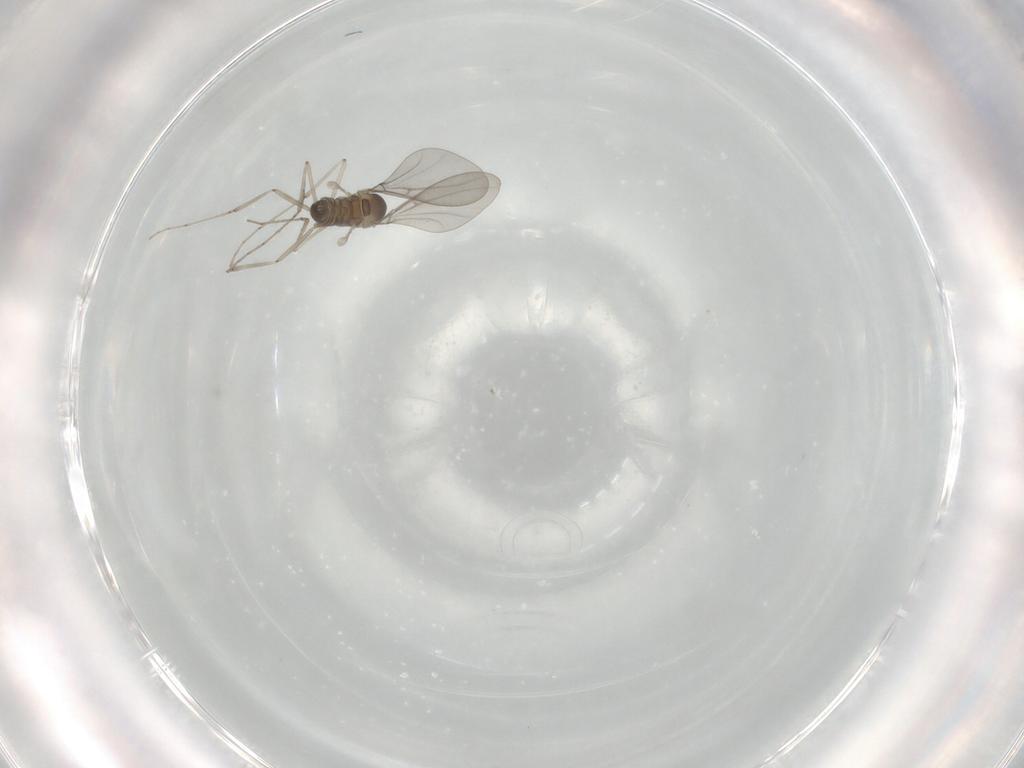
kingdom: Animalia
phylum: Arthropoda
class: Insecta
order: Diptera
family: Cecidomyiidae
